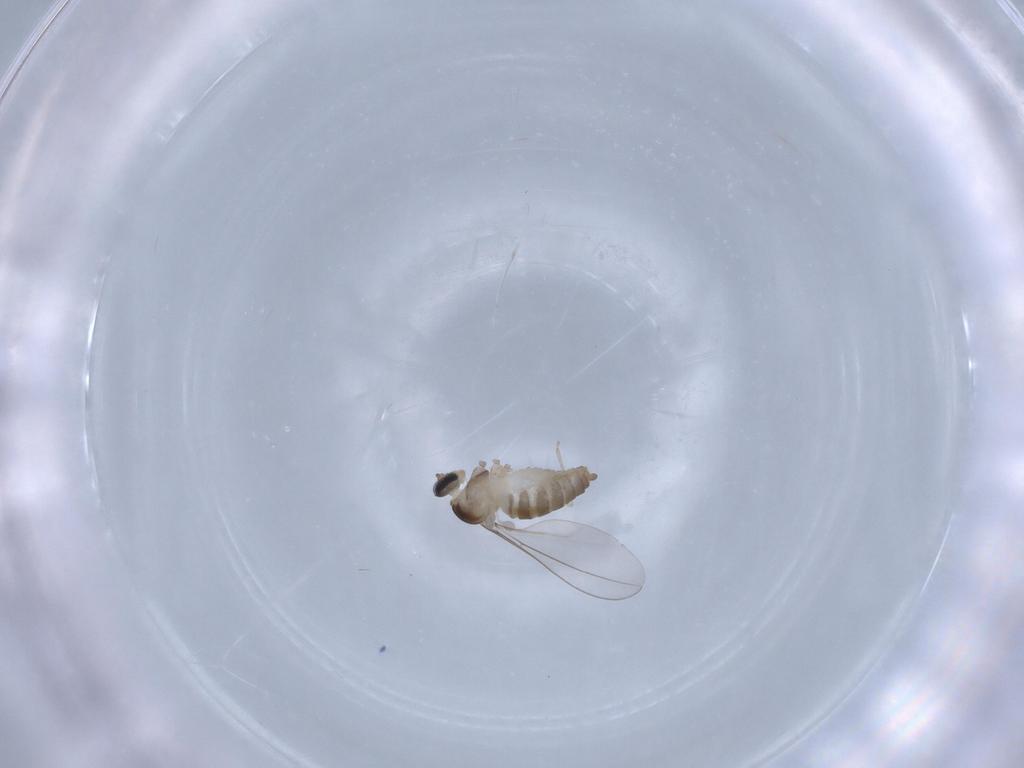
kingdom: Animalia
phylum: Arthropoda
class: Insecta
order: Diptera
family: Cecidomyiidae
